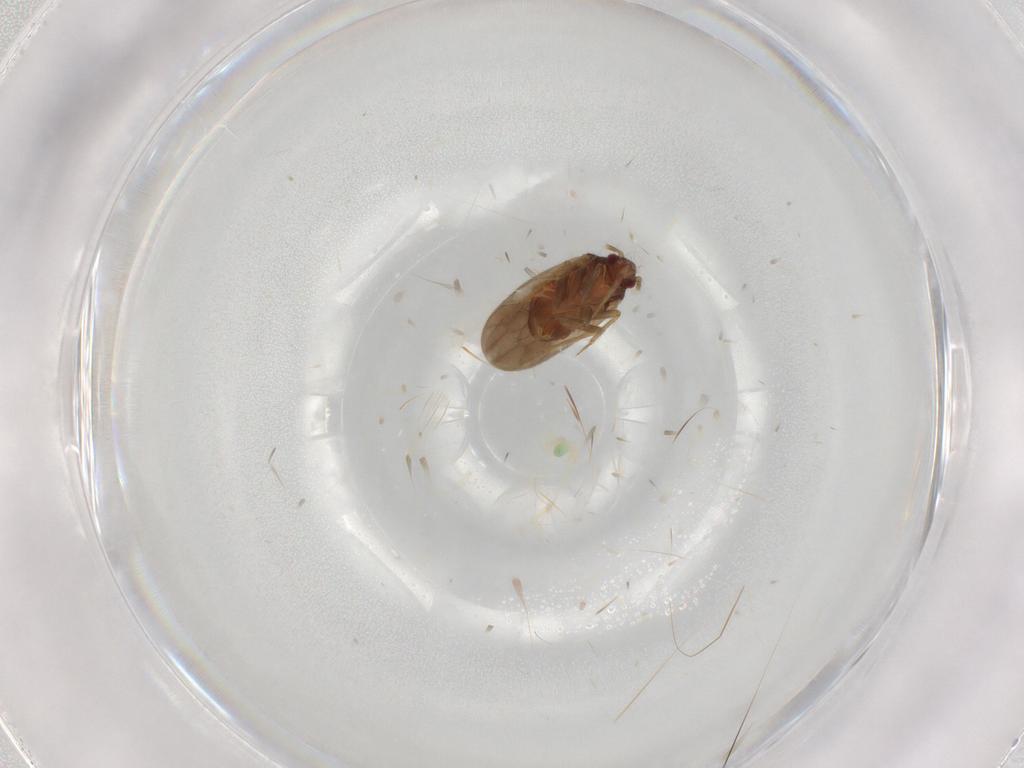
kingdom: Animalia
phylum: Arthropoda
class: Insecta
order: Hemiptera
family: Ceratocombidae
